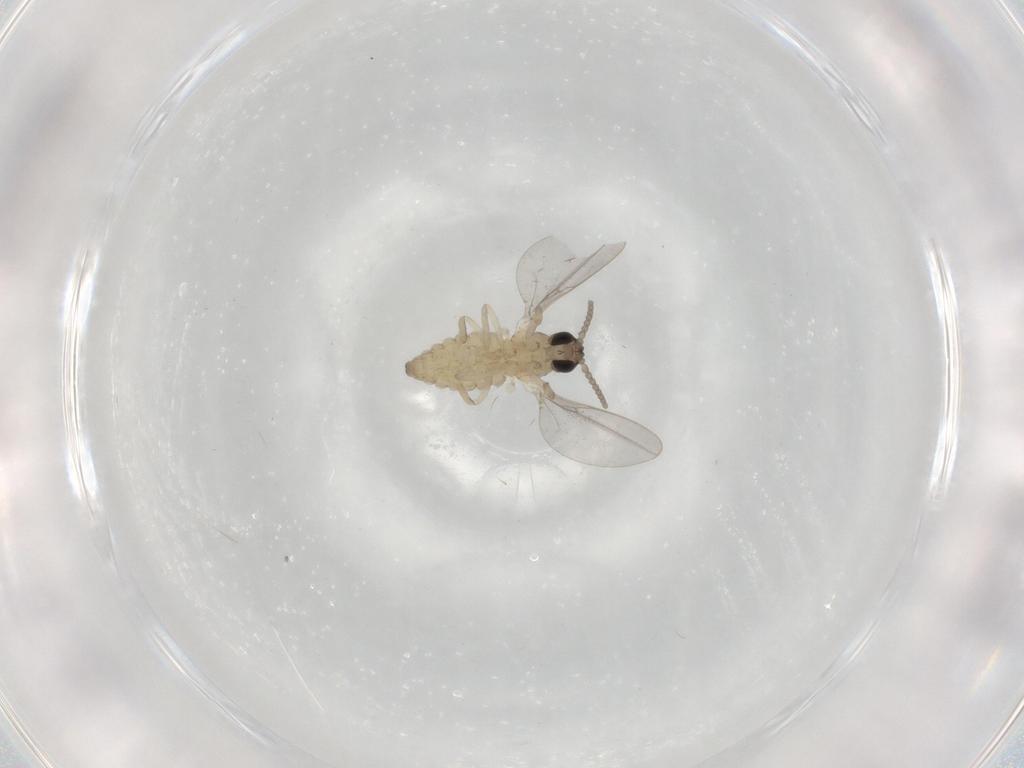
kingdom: Animalia
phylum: Arthropoda
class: Insecta
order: Diptera
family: Cecidomyiidae
